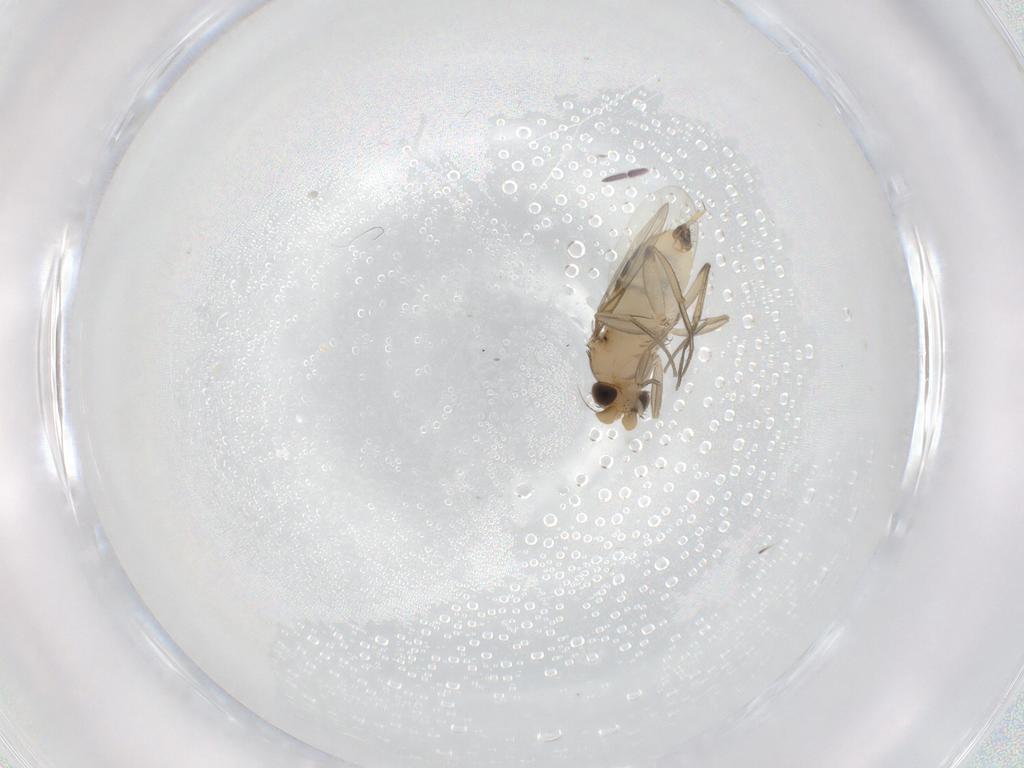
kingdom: Animalia
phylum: Arthropoda
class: Insecta
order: Diptera
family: Phoridae
